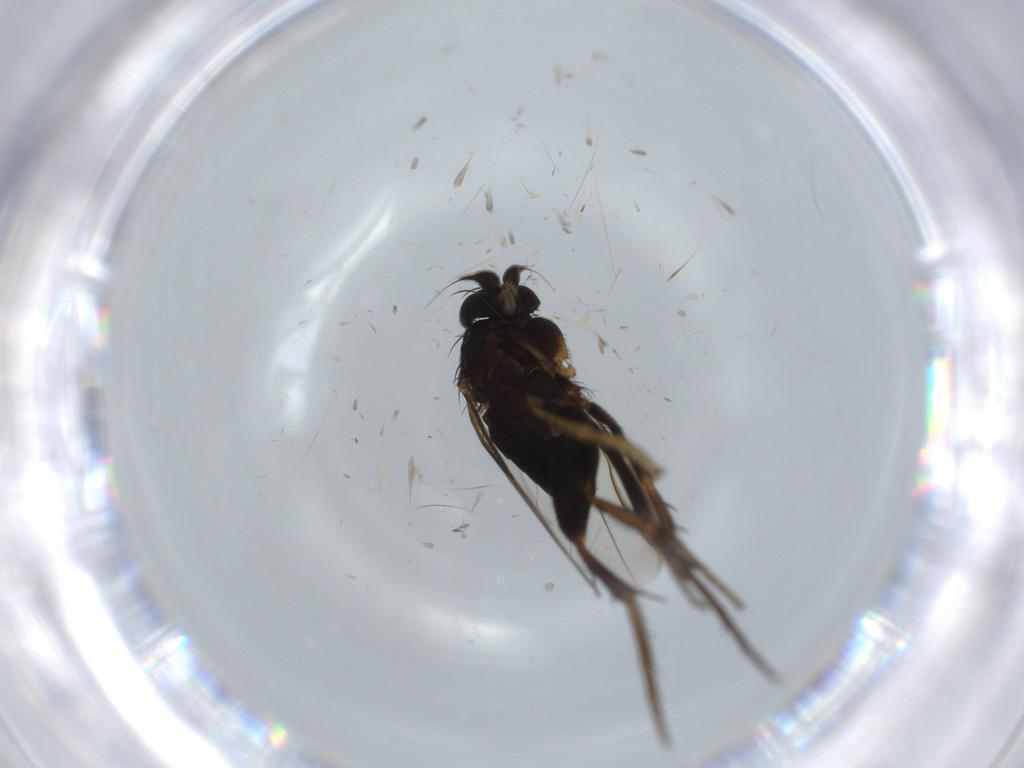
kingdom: Animalia
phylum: Arthropoda
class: Insecta
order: Diptera
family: Phoridae
